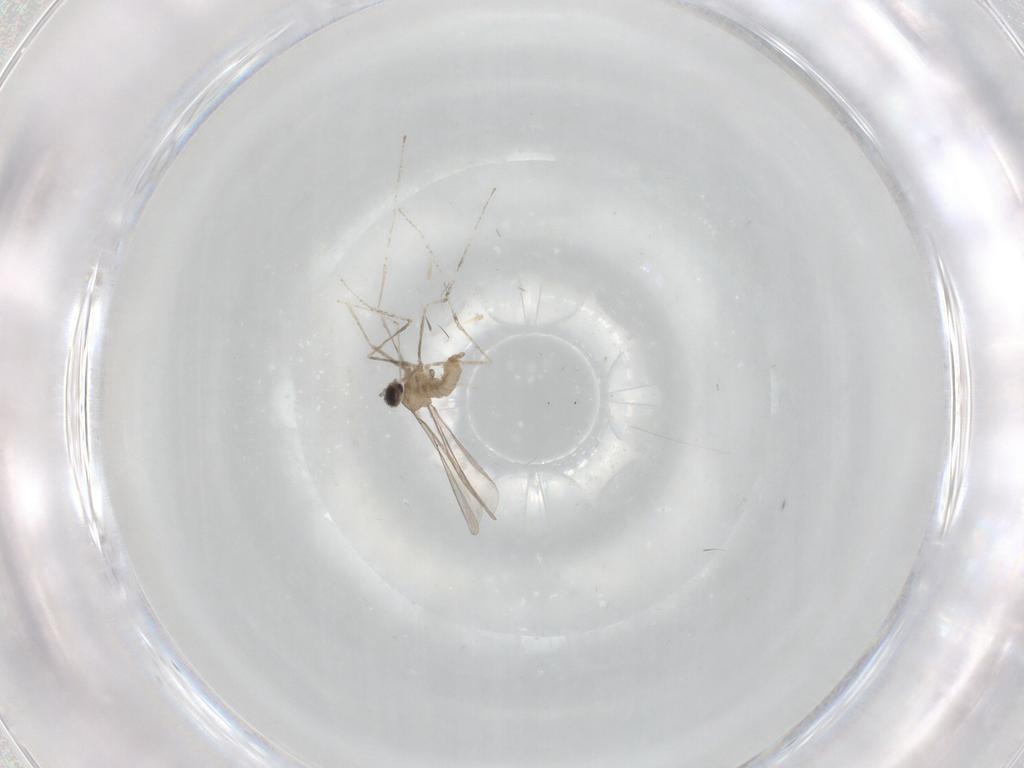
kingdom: Animalia
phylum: Arthropoda
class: Insecta
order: Diptera
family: Cecidomyiidae
